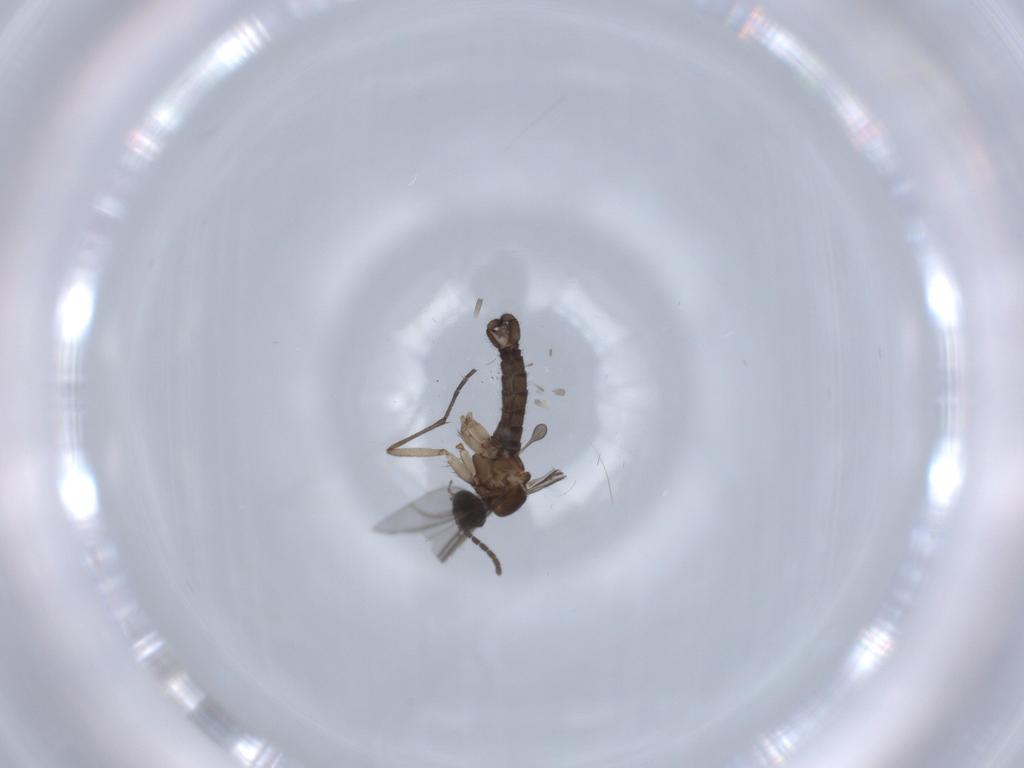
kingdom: Animalia
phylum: Arthropoda
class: Insecta
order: Diptera
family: Sciaridae
